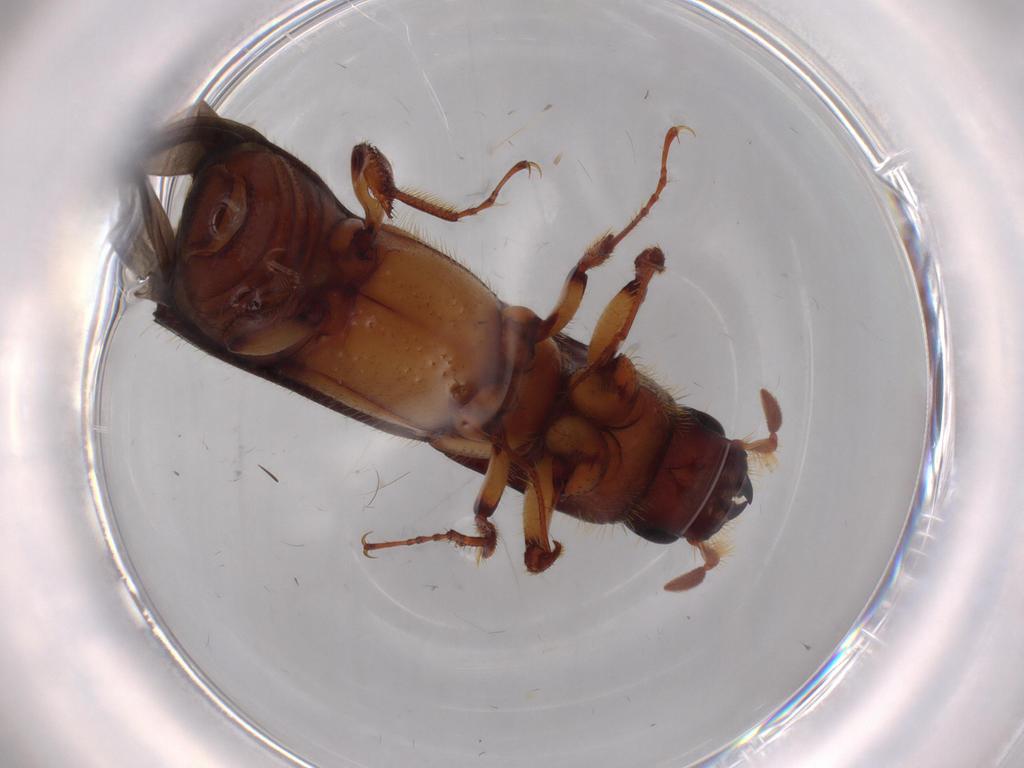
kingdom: Animalia
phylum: Arthropoda
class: Insecta
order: Coleoptera
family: Curculionidae
